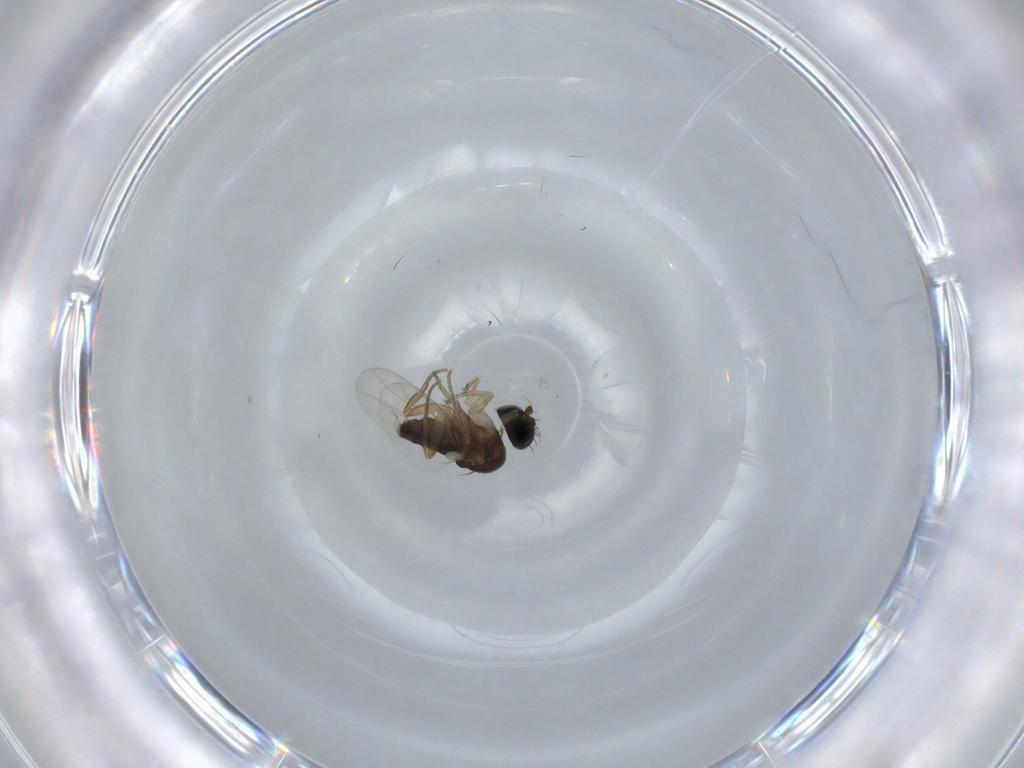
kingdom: Animalia
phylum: Arthropoda
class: Insecta
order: Diptera
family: Phoridae
